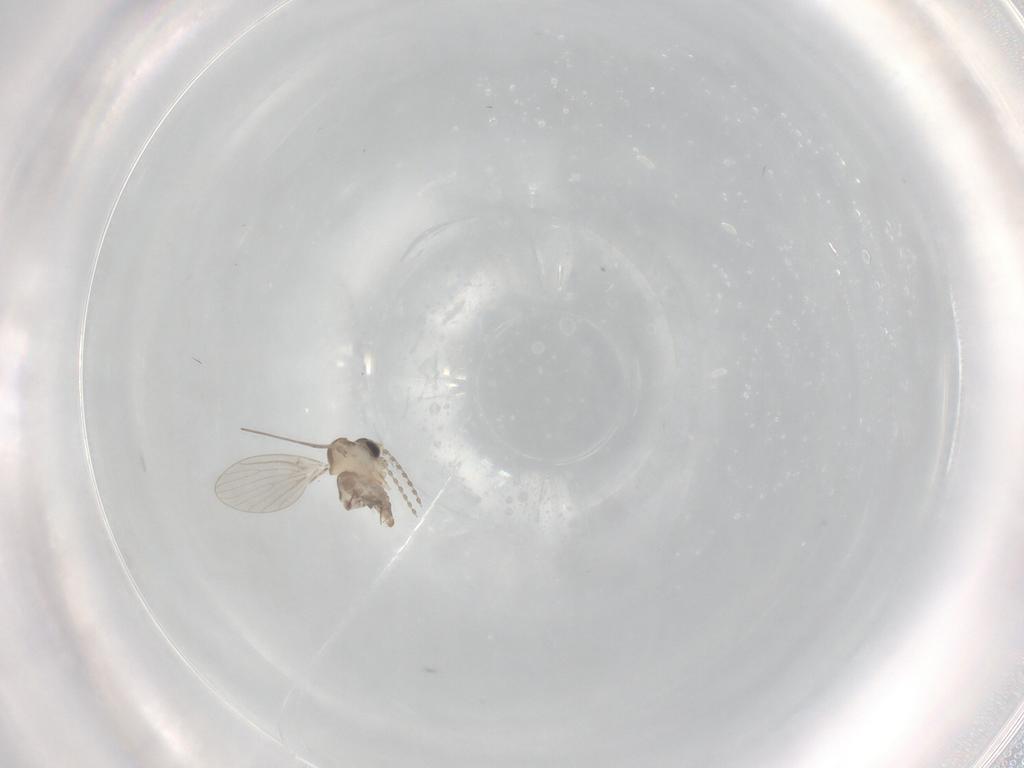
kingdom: Animalia
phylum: Arthropoda
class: Insecta
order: Diptera
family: Psychodidae
